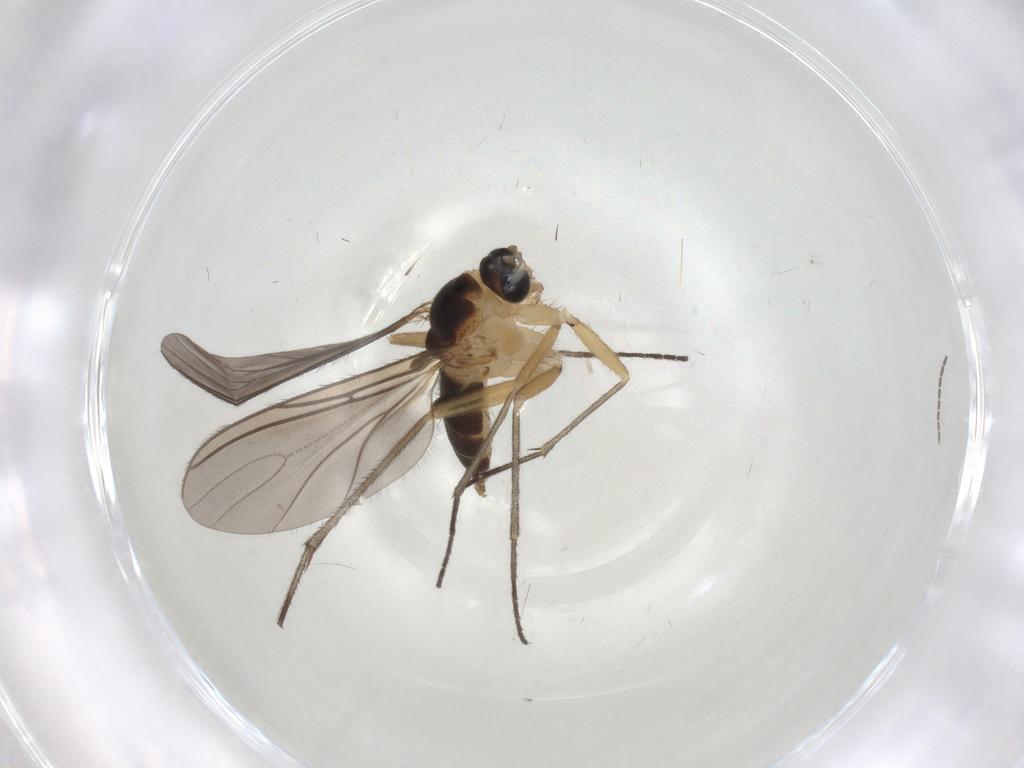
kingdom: Animalia
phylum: Arthropoda
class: Insecta
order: Diptera
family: Sciaridae
